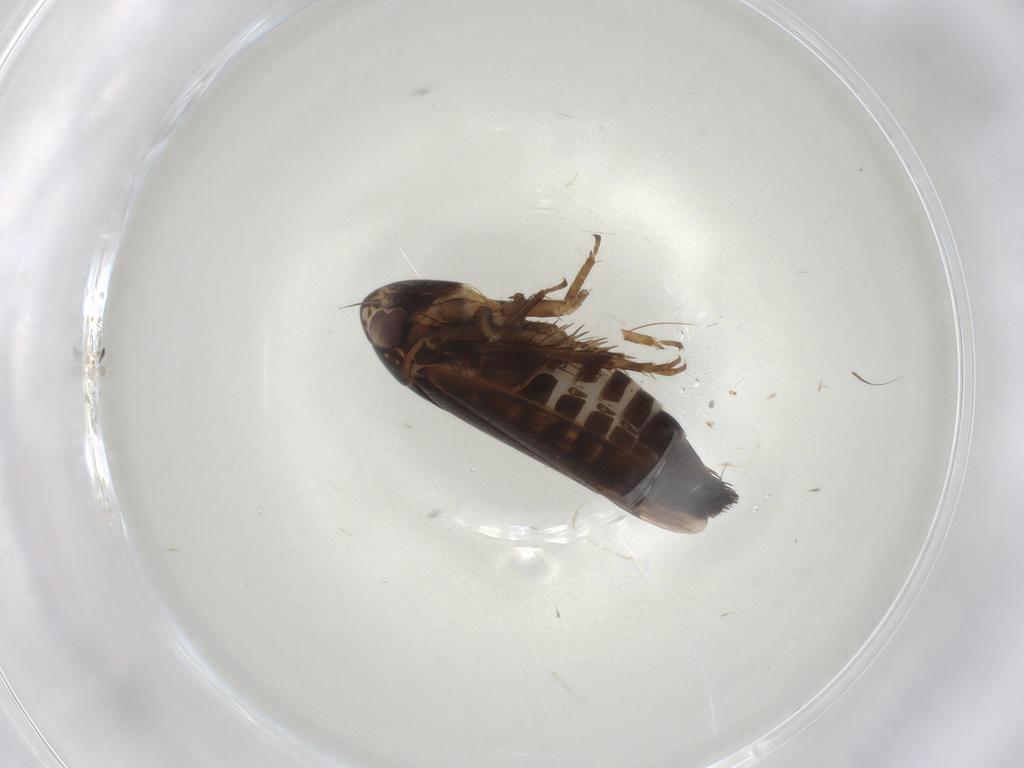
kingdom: Animalia
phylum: Arthropoda
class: Insecta
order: Hemiptera
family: Cicadellidae
